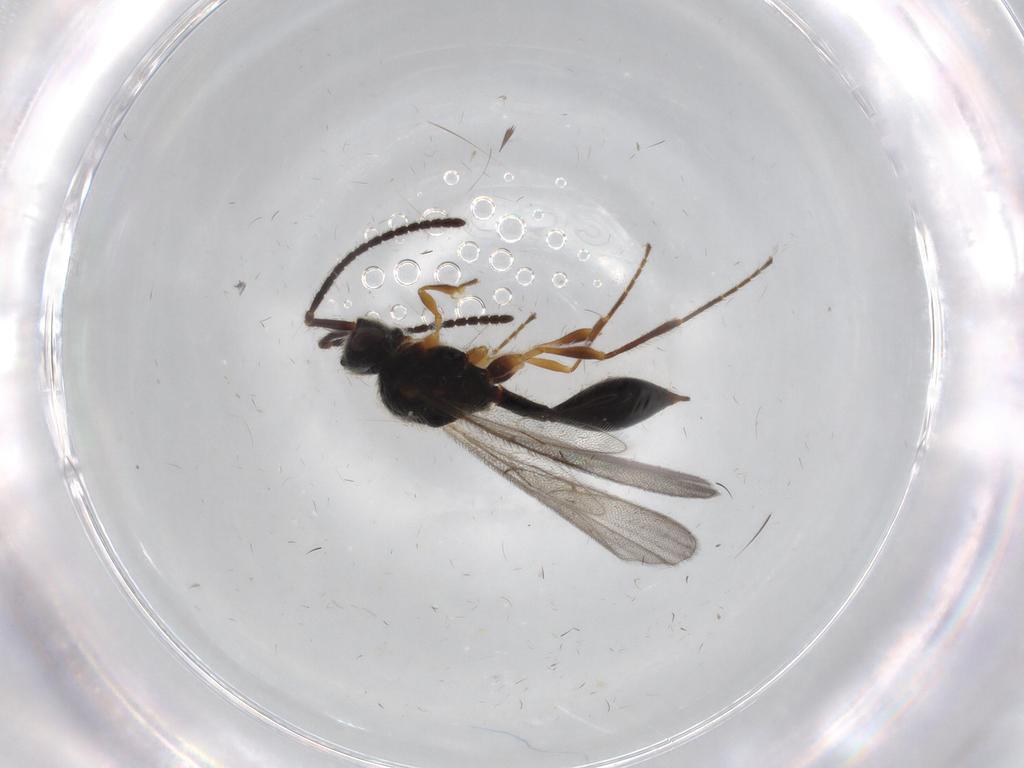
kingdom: Animalia
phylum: Arthropoda
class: Insecta
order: Hymenoptera
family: Diapriidae
